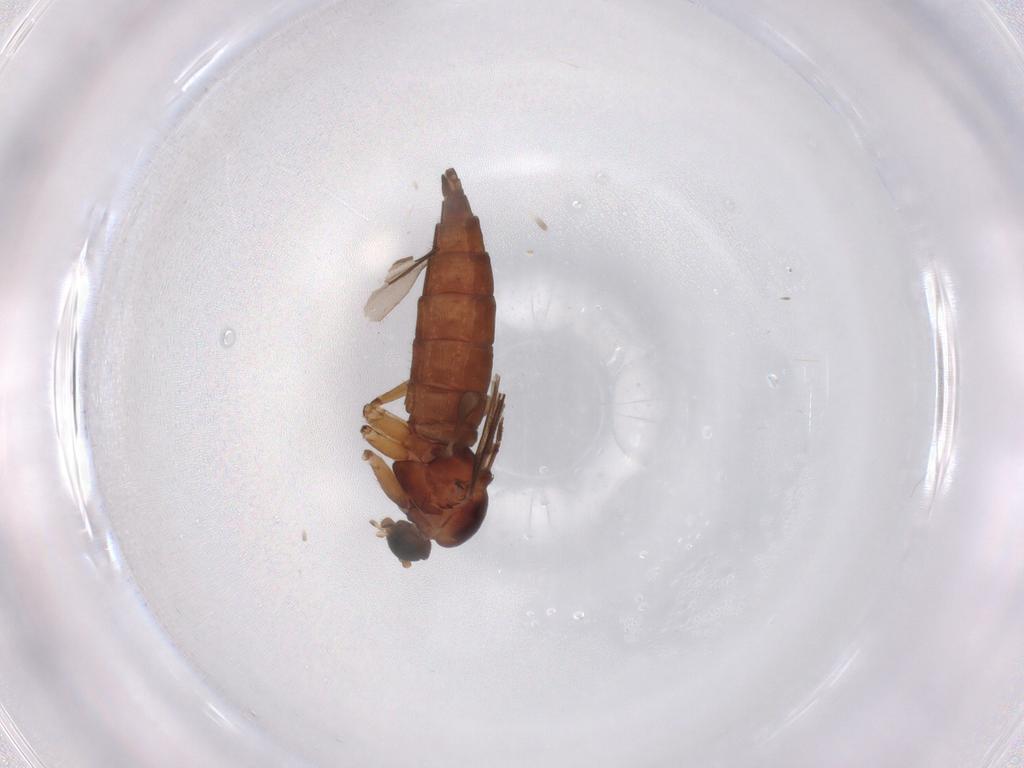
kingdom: Animalia
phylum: Arthropoda
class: Insecta
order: Diptera
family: Sciaridae
